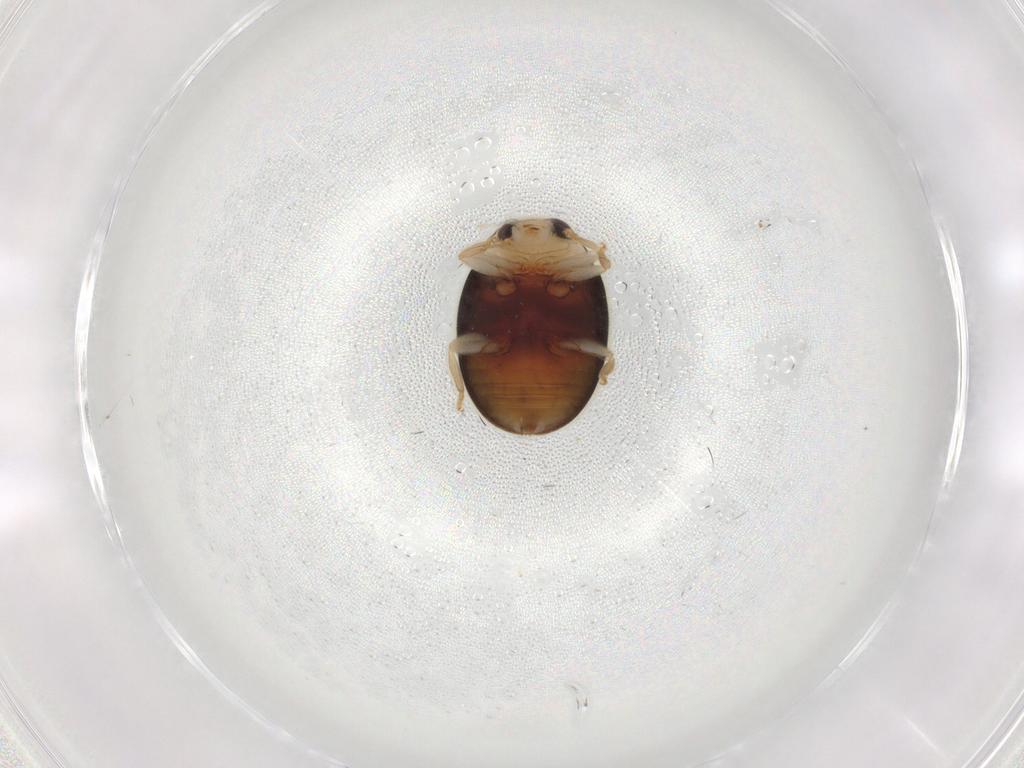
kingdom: Animalia
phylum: Arthropoda
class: Insecta
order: Coleoptera
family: Coccinellidae
